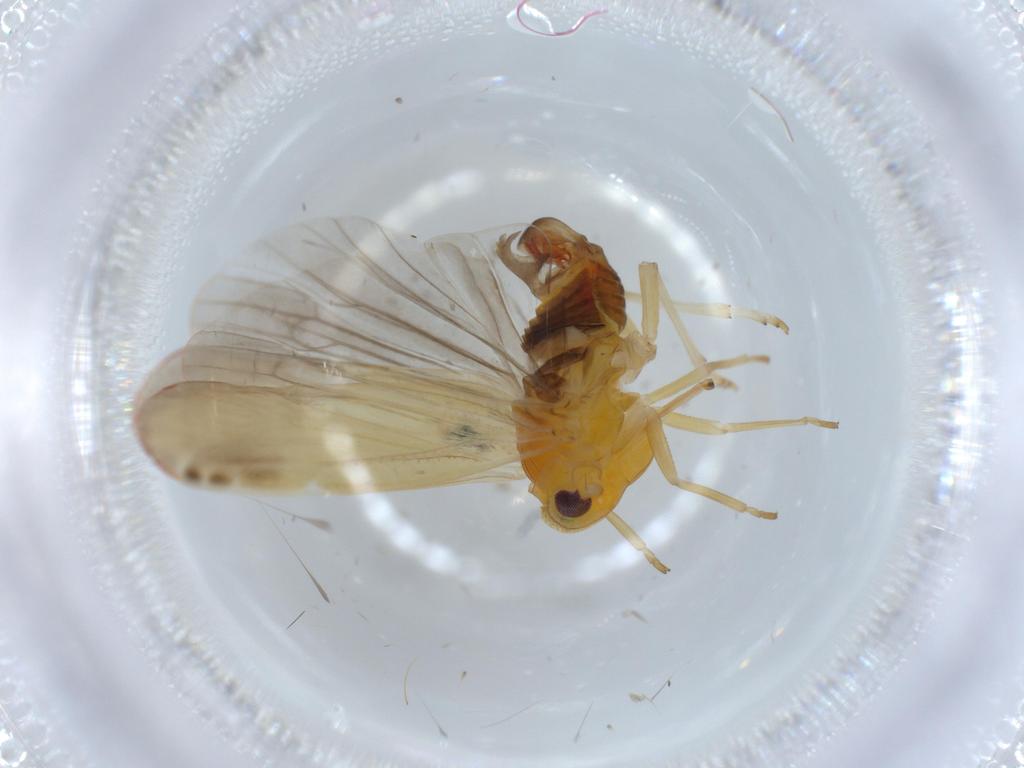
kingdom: Animalia
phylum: Arthropoda
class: Insecta
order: Hemiptera
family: Derbidae
